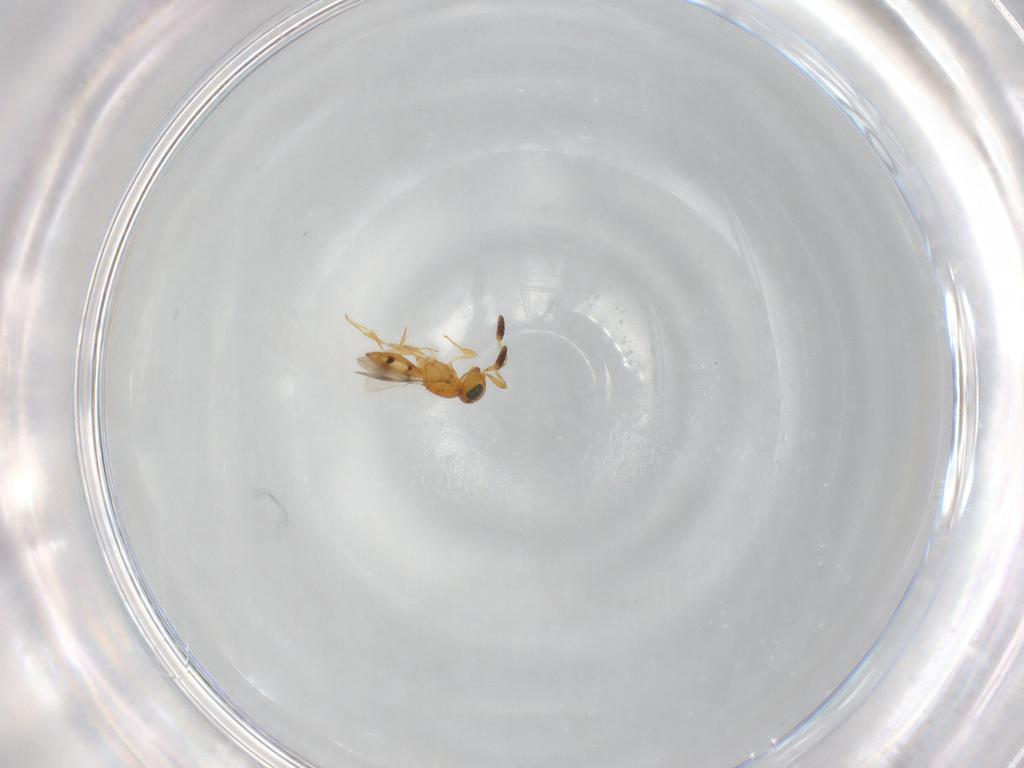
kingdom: Animalia
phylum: Arthropoda
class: Insecta
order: Hymenoptera
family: Scelionidae
